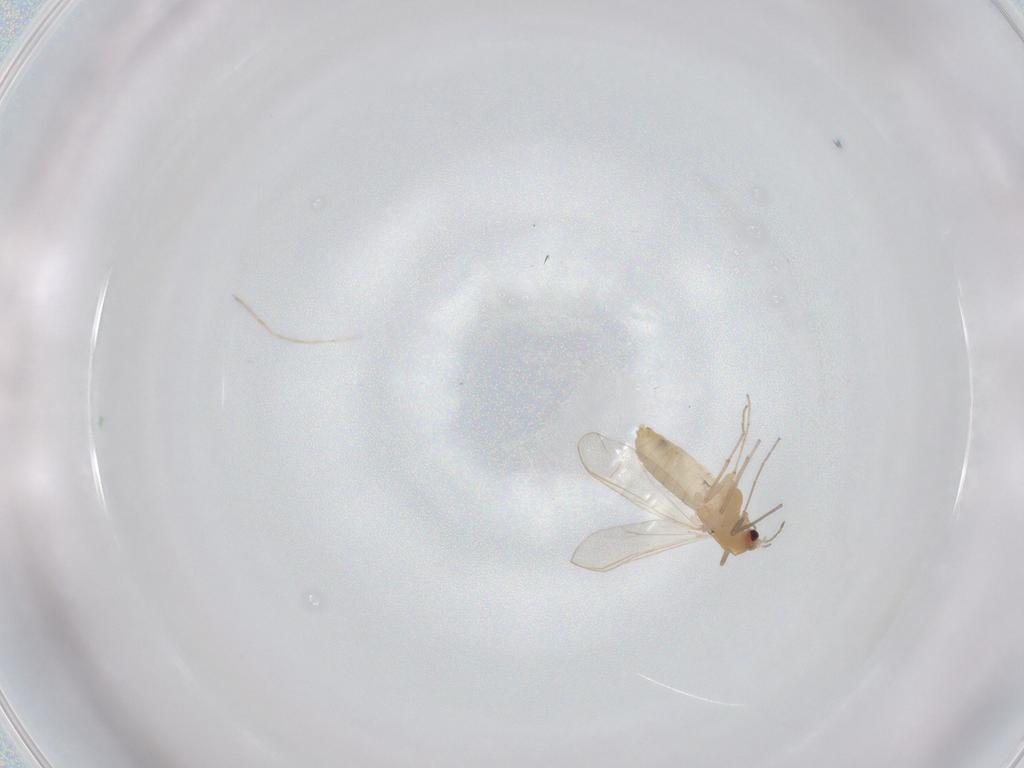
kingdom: Animalia
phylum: Arthropoda
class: Insecta
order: Diptera
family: Chironomidae
